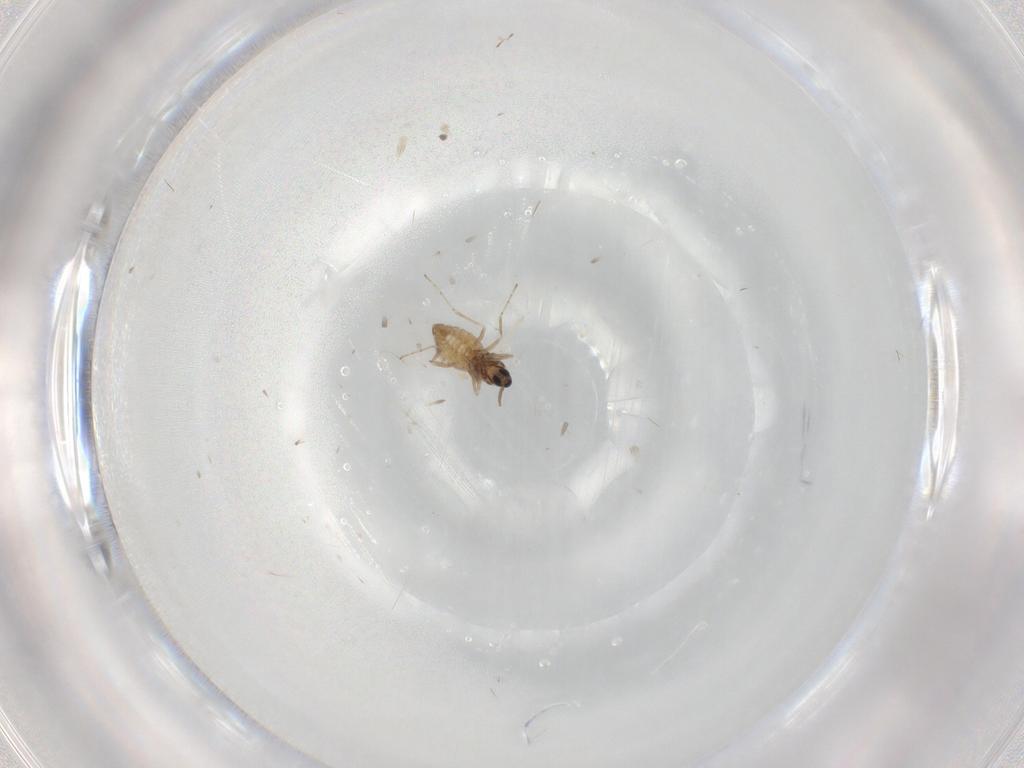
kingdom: Animalia
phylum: Arthropoda
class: Insecta
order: Diptera
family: Cecidomyiidae
